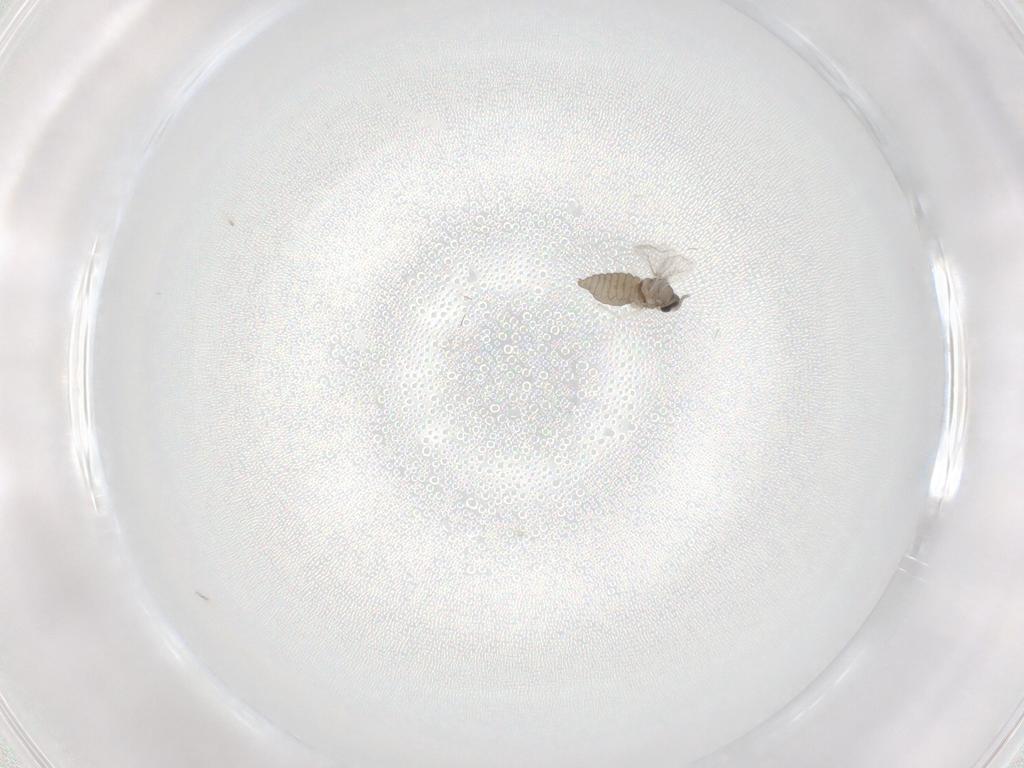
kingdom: Animalia
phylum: Arthropoda
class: Insecta
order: Diptera
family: Cecidomyiidae
